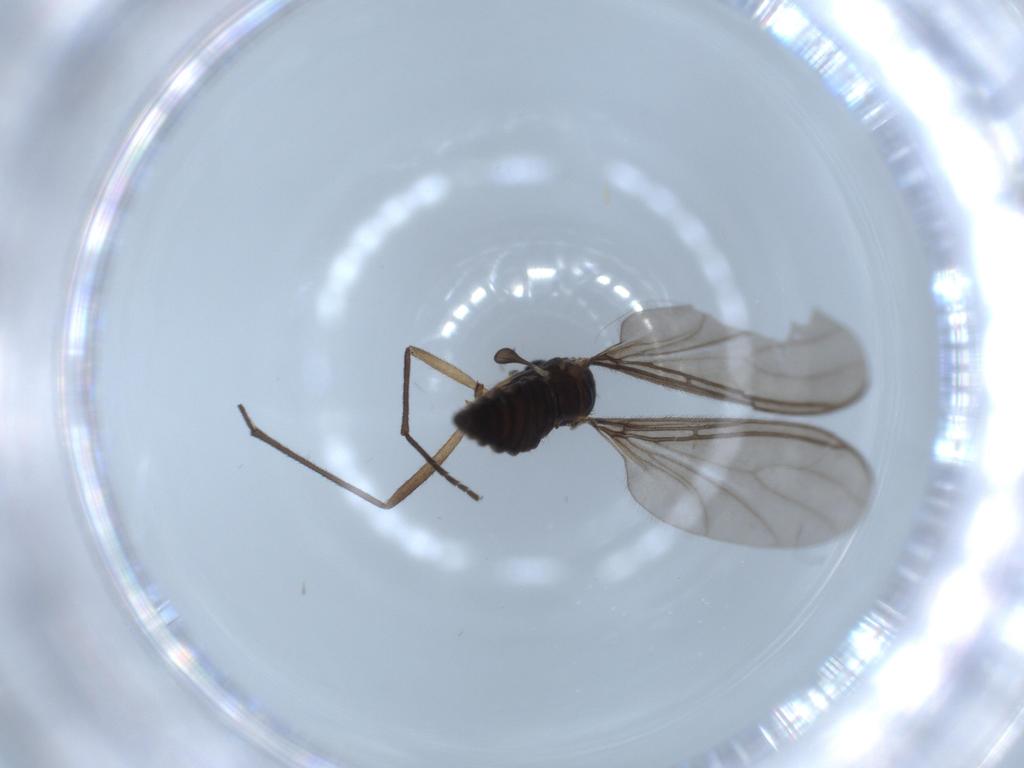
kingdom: Animalia
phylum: Arthropoda
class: Insecta
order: Diptera
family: Sciaridae
